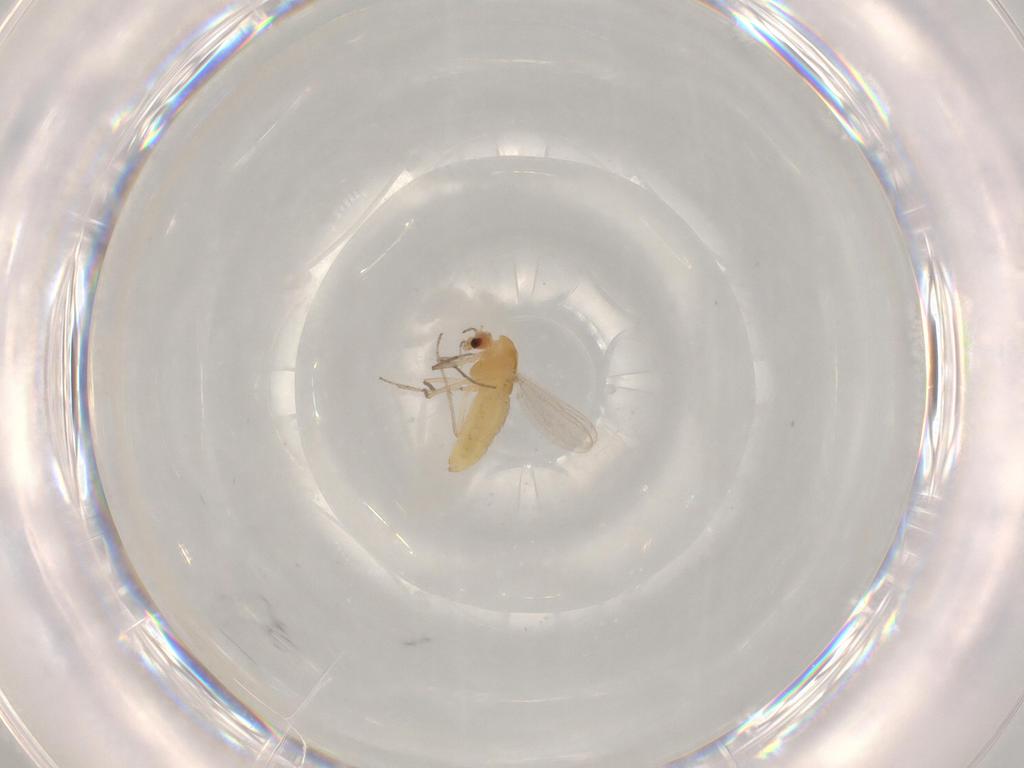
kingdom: Animalia
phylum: Arthropoda
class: Insecta
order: Diptera
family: Chironomidae
